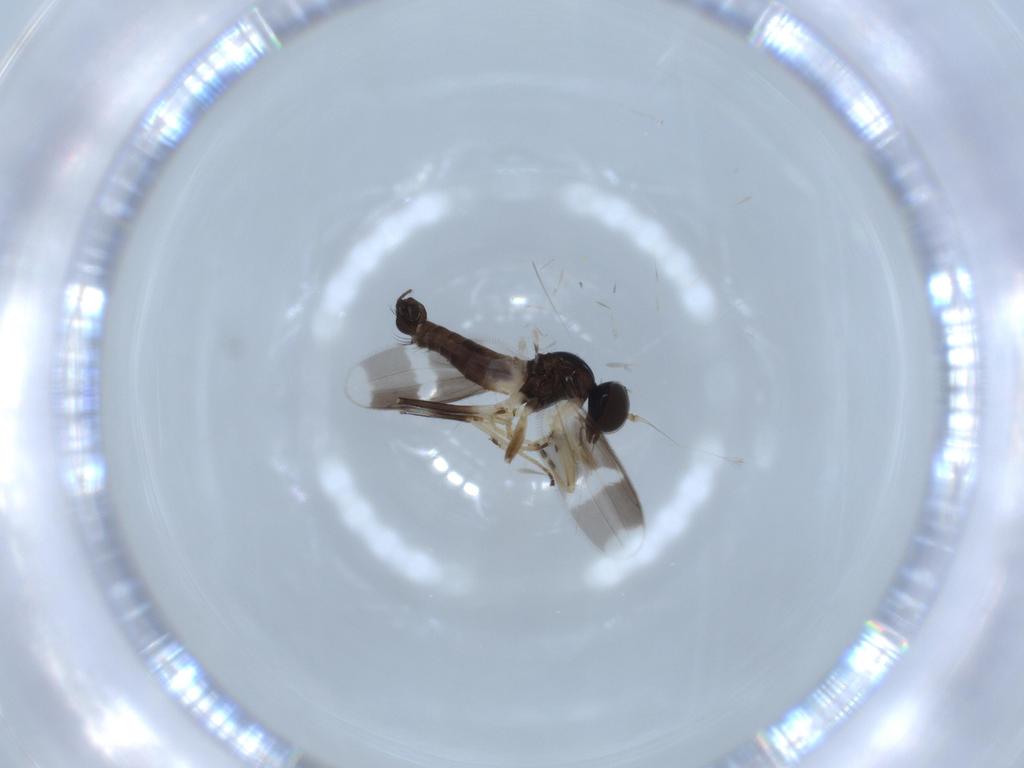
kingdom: Animalia
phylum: Arthropoda
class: Insecta
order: Diptera
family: Hybotidae
